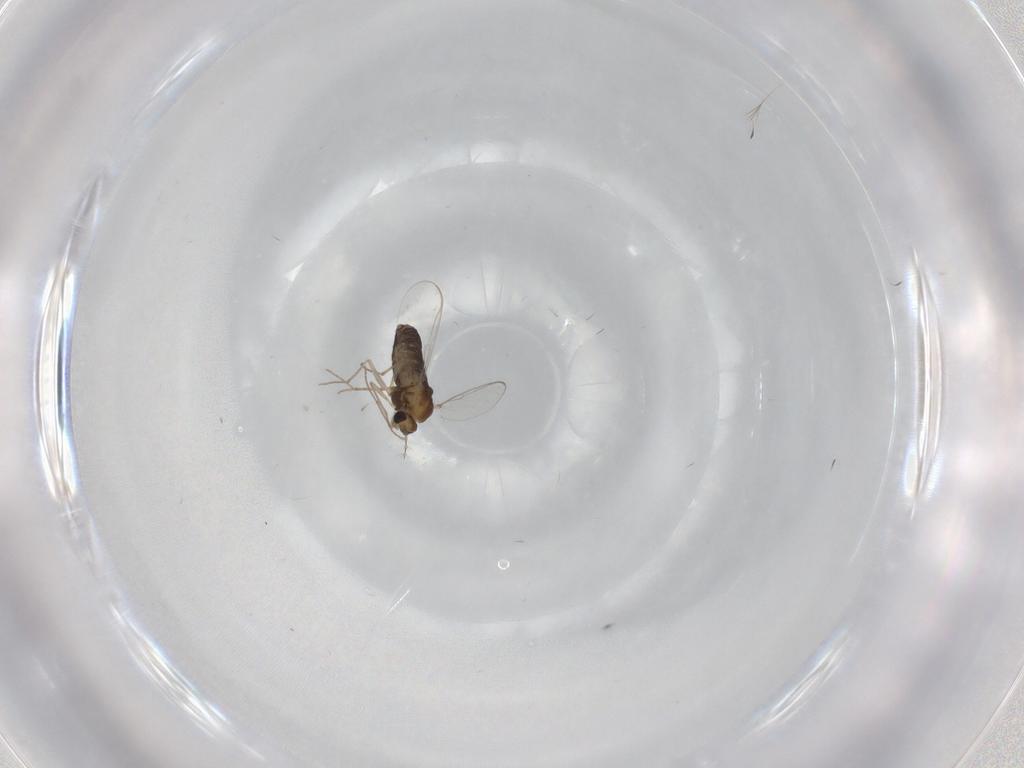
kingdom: Animalia
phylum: Arthropoda
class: Insecta
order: Diptera
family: Chironomidae
